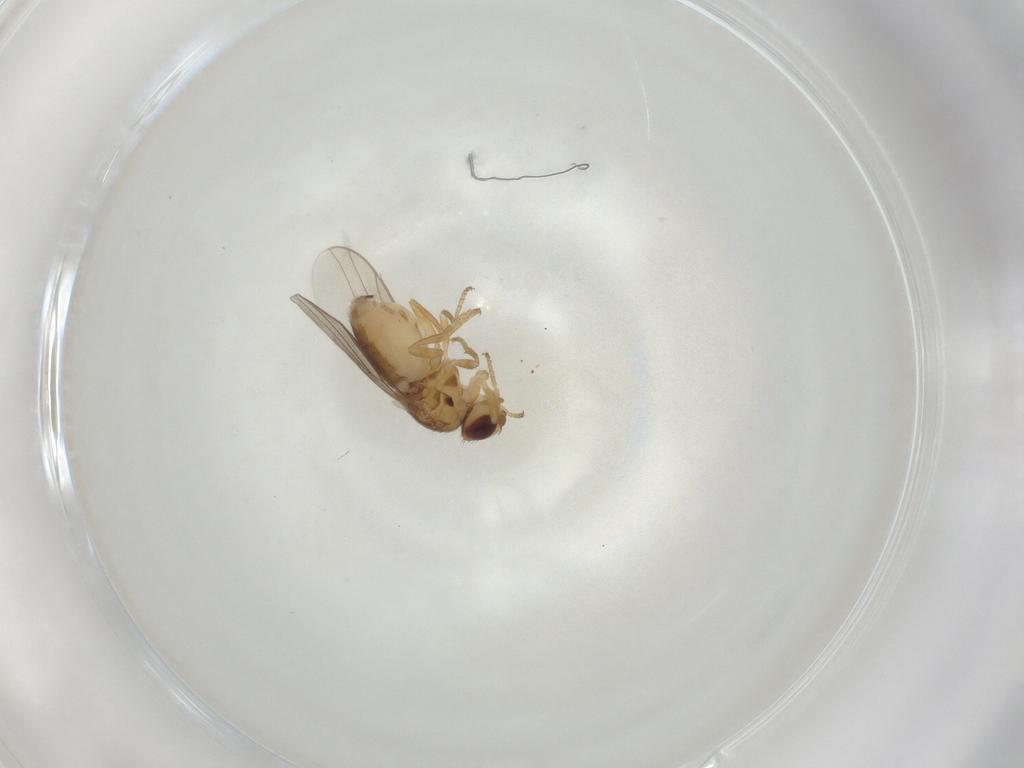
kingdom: Animalia
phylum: Arthropoda
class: Insecta
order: Diptera
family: Chloropidae
